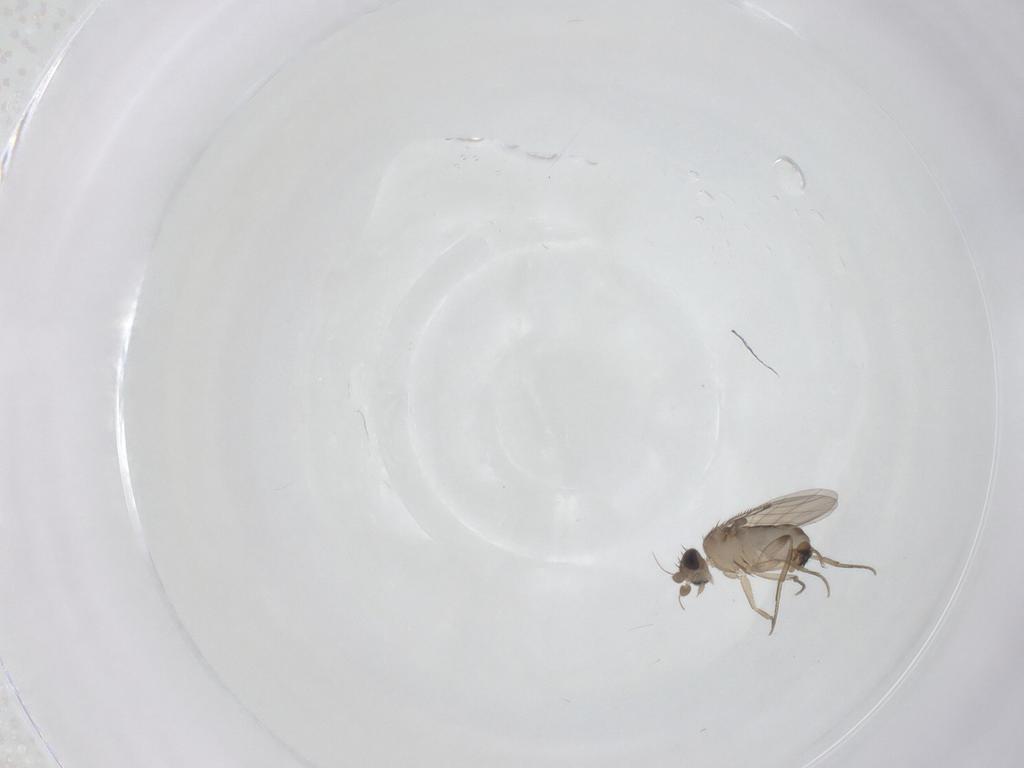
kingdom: Animalia
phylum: Arthropoda
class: Insecta
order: Diptera
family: Phoridae
